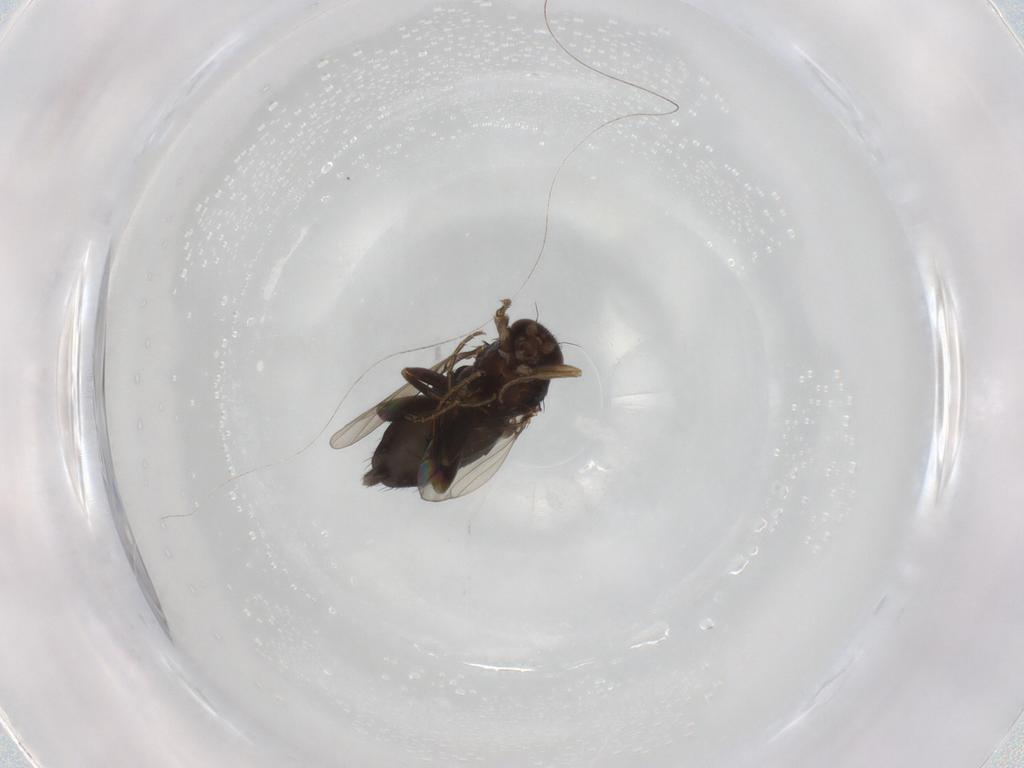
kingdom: Animalia
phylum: Arthropoda
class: Insecta
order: Diptera
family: Phoridae
